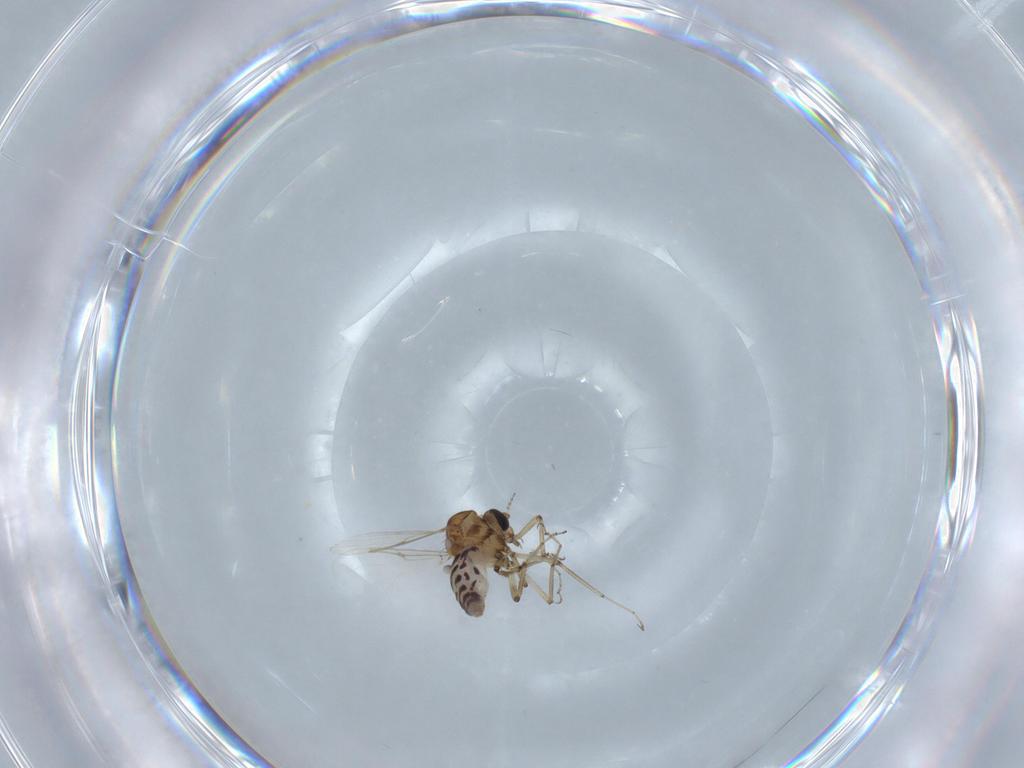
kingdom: Animalia
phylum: Arthropoda
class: Insecta
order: Diptera
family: Ceratopogonidae
